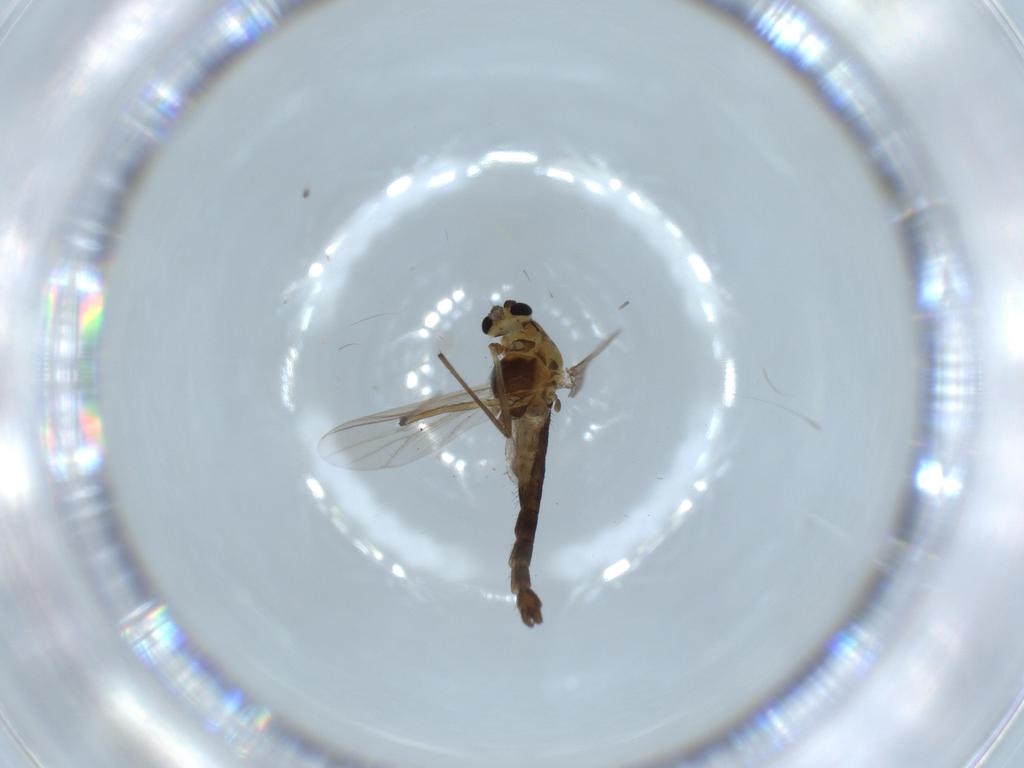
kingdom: Animalia
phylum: Arthropoda
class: Insecta
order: Diptera
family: Phoridae
